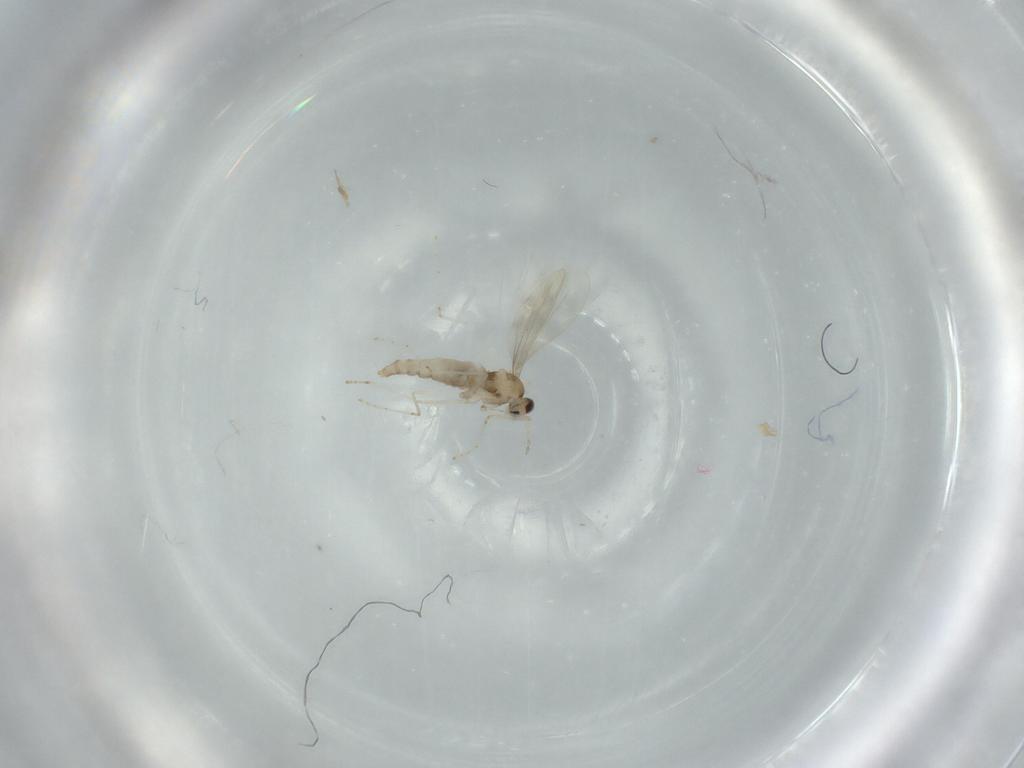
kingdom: Animalia
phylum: Arthropoda
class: Insecta
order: Diptera
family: Cecidomyiidae
